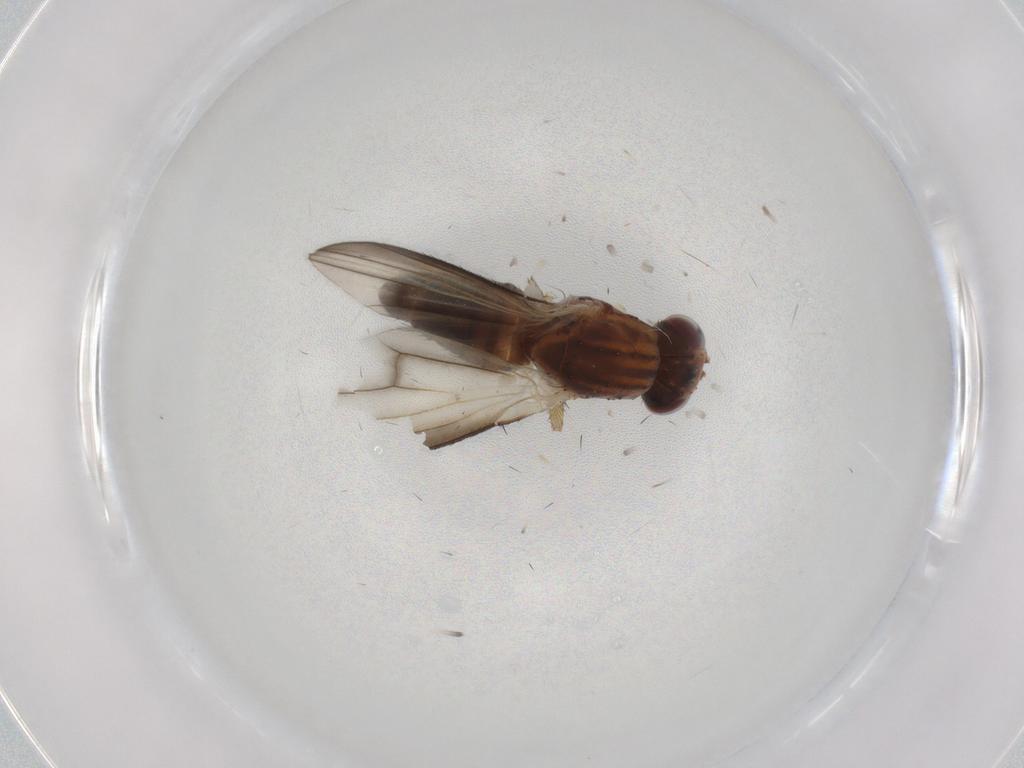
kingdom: Animalia
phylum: Arthropoda
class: Insecta
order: Diptera
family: Heleomyzidae
